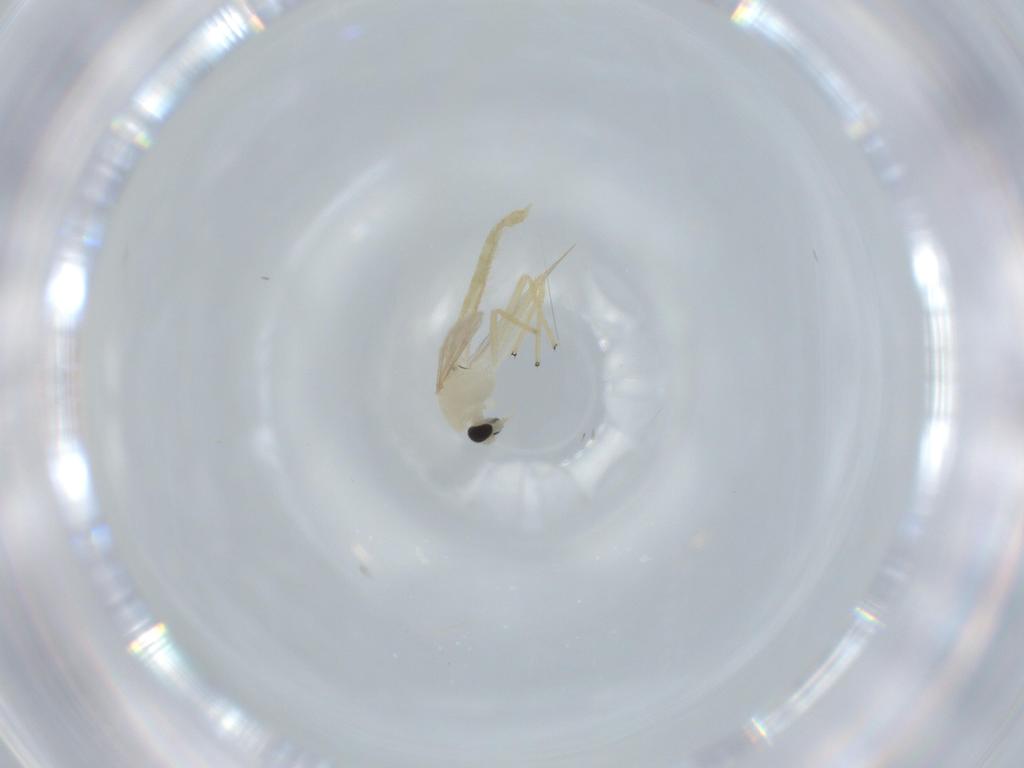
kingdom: Animalia
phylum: Arthropoda
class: Insecta
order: Diptera
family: Chironomidae
